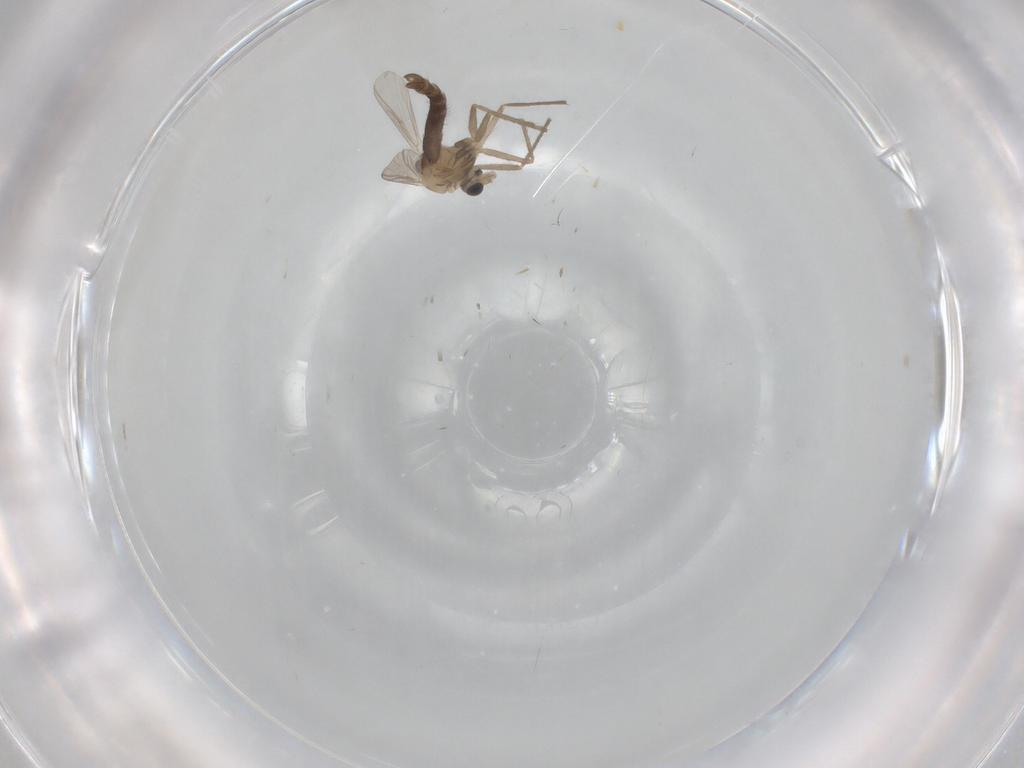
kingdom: Animalia
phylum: Arthropoda
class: Insecta
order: Diptera
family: Chironomidae
